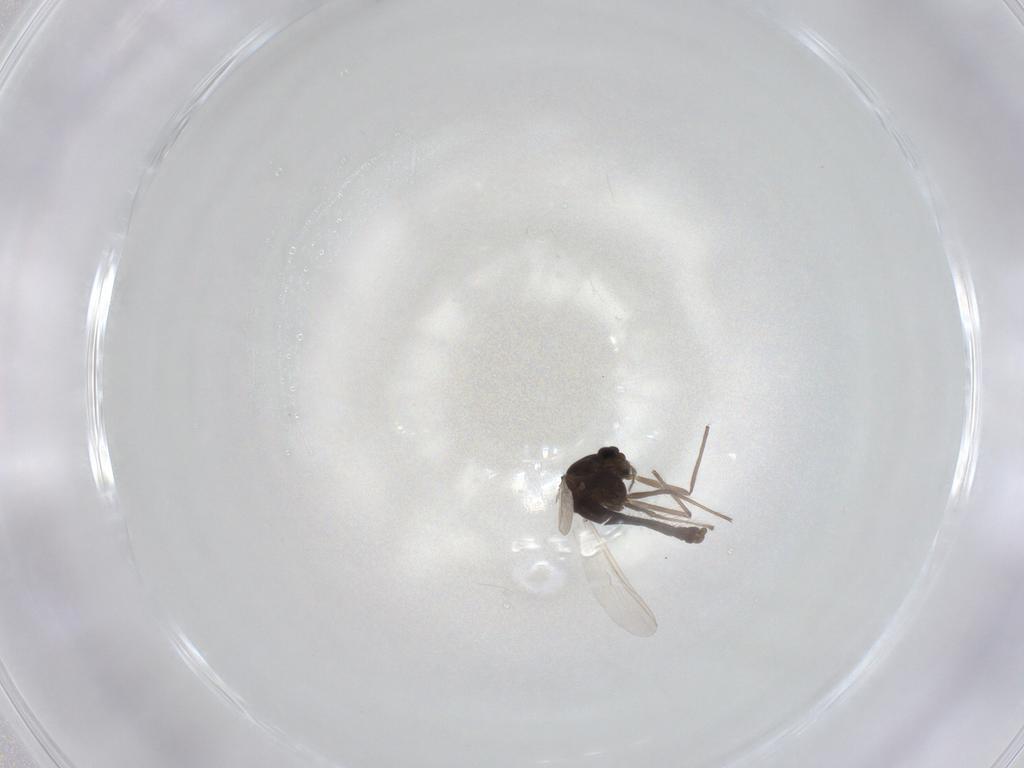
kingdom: Animalia
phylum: Arthropoda
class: Insecta
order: Diptera
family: Chironomidae
